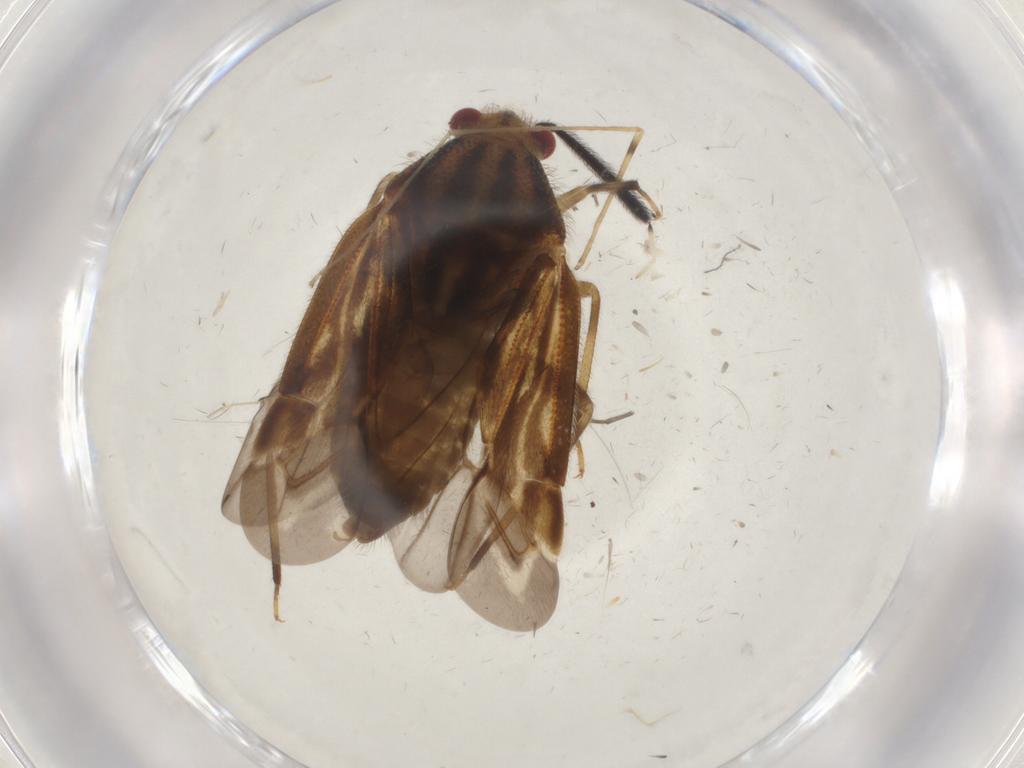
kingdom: Animalia
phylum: Arthropoda
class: Insecta
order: Hemiptera
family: Miridae
